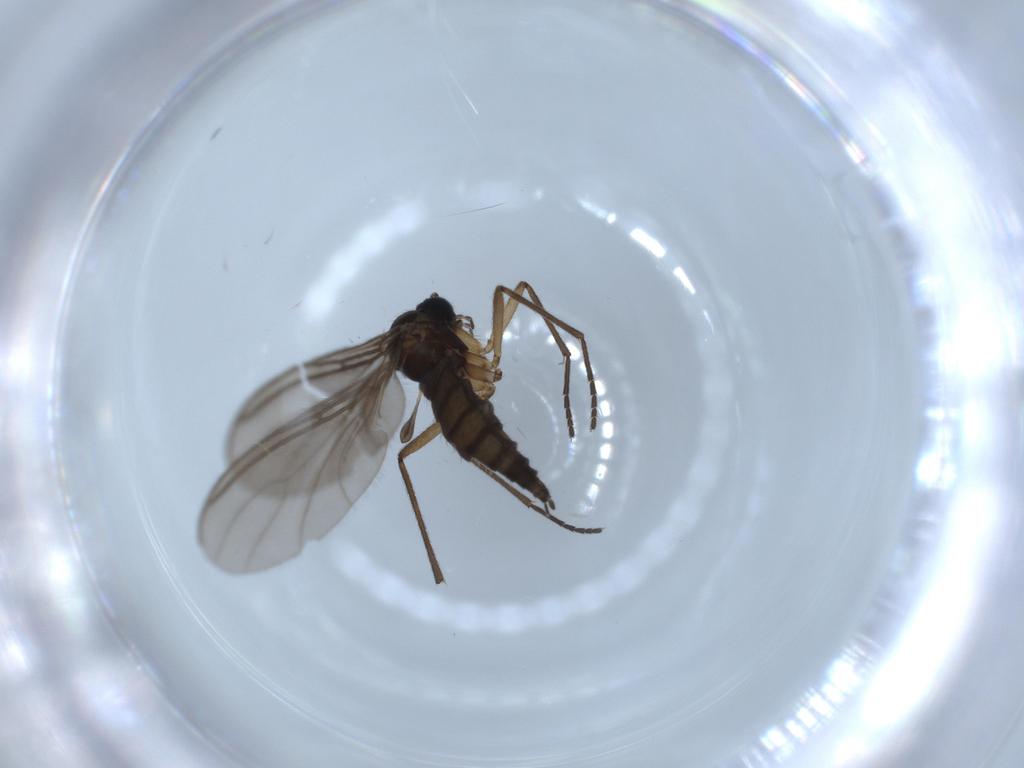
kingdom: Animalia
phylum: Arthropoda
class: Insecta
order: Diptera
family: Sciaridae
